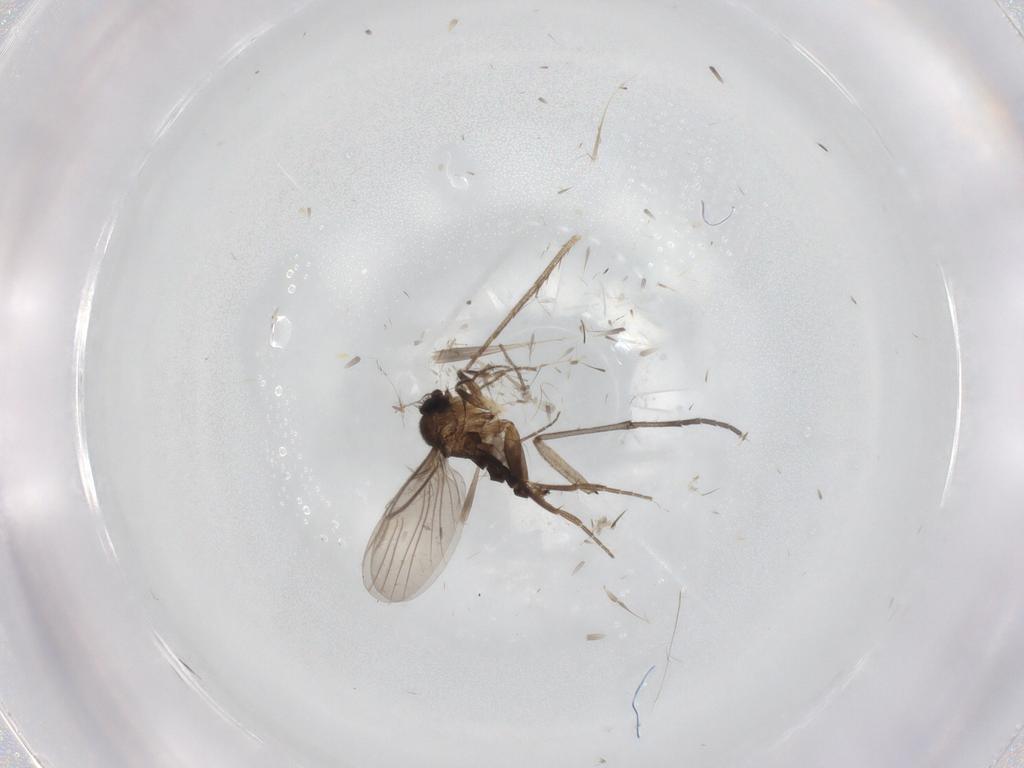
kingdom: Animalia
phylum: Arthropoda
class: Insecta
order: Diptera
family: Sciaridae
